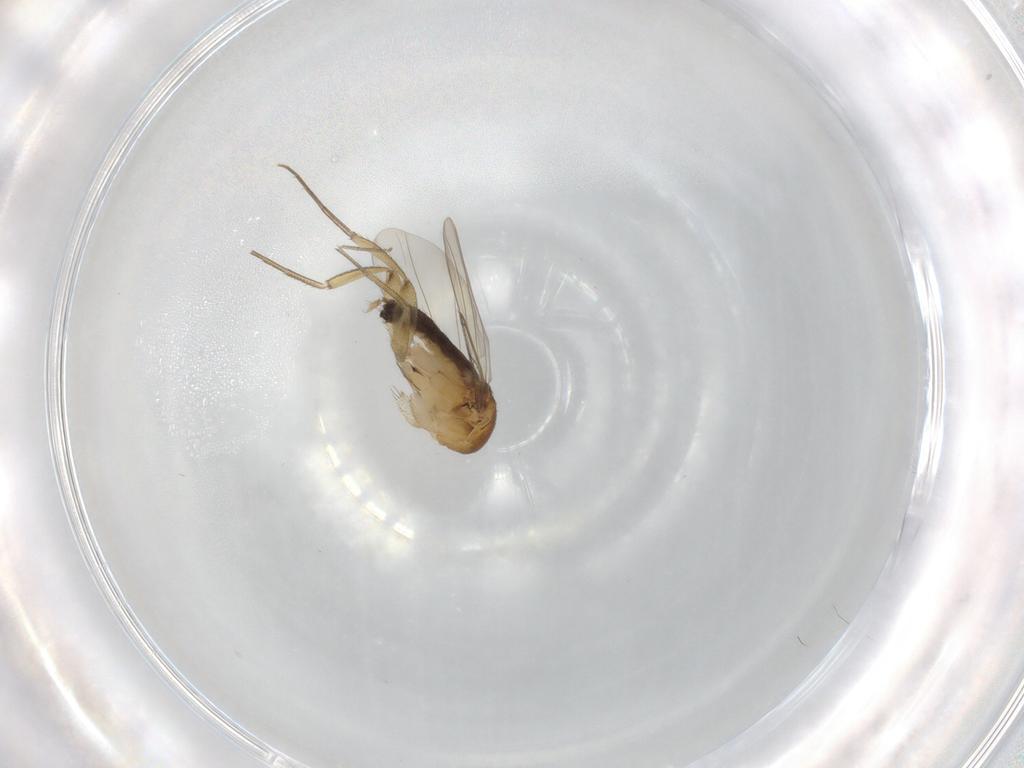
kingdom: Animalia
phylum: Arthropoda
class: Insecta
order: Diptera
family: Phoridae
